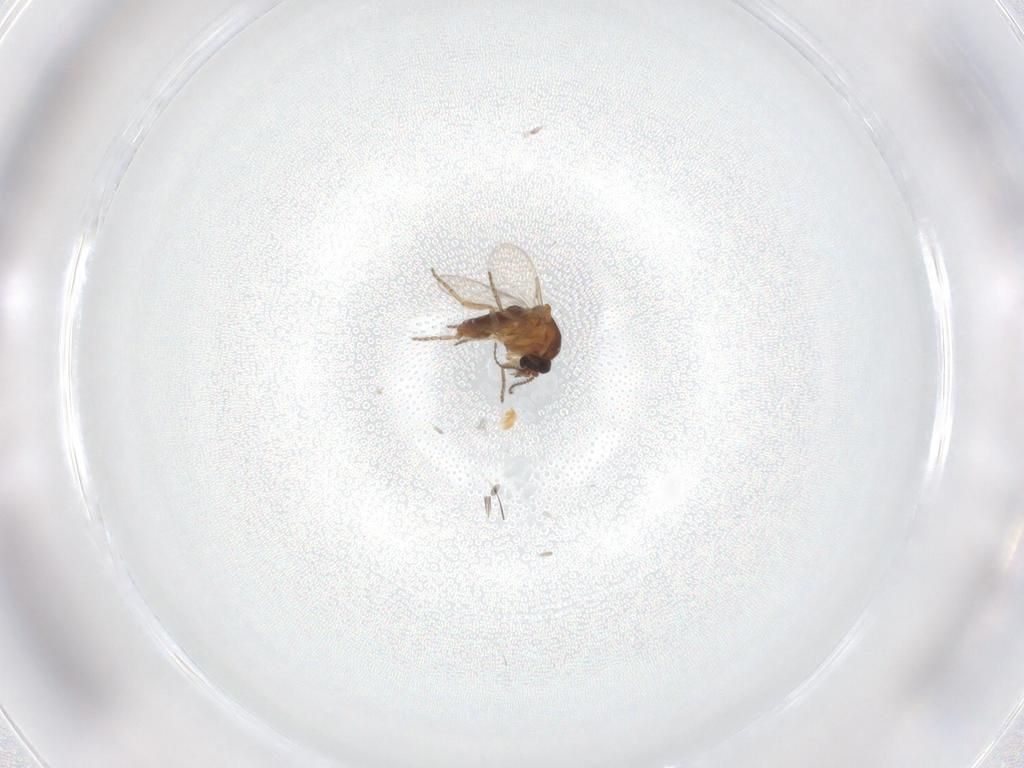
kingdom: Animalia
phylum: Arthropoda
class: Insecta
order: Diptera
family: Ceratopogonidae
